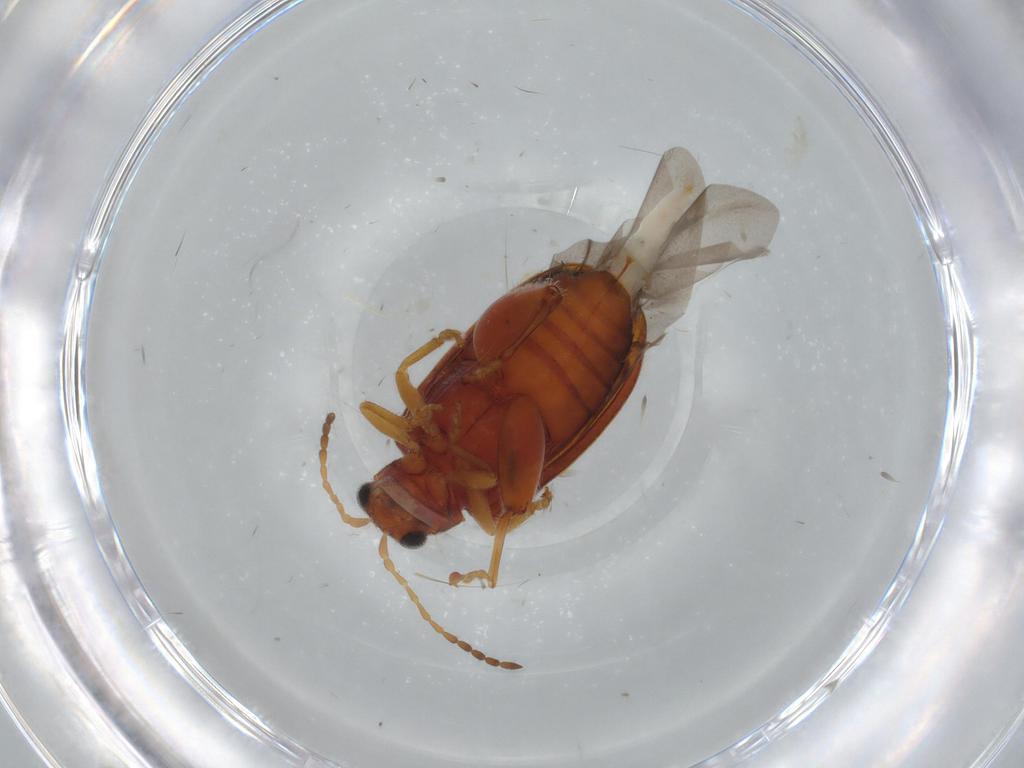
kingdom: Animalia
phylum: Arthropoda
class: Insecta
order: Coleoptera
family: Chrysomelidae
